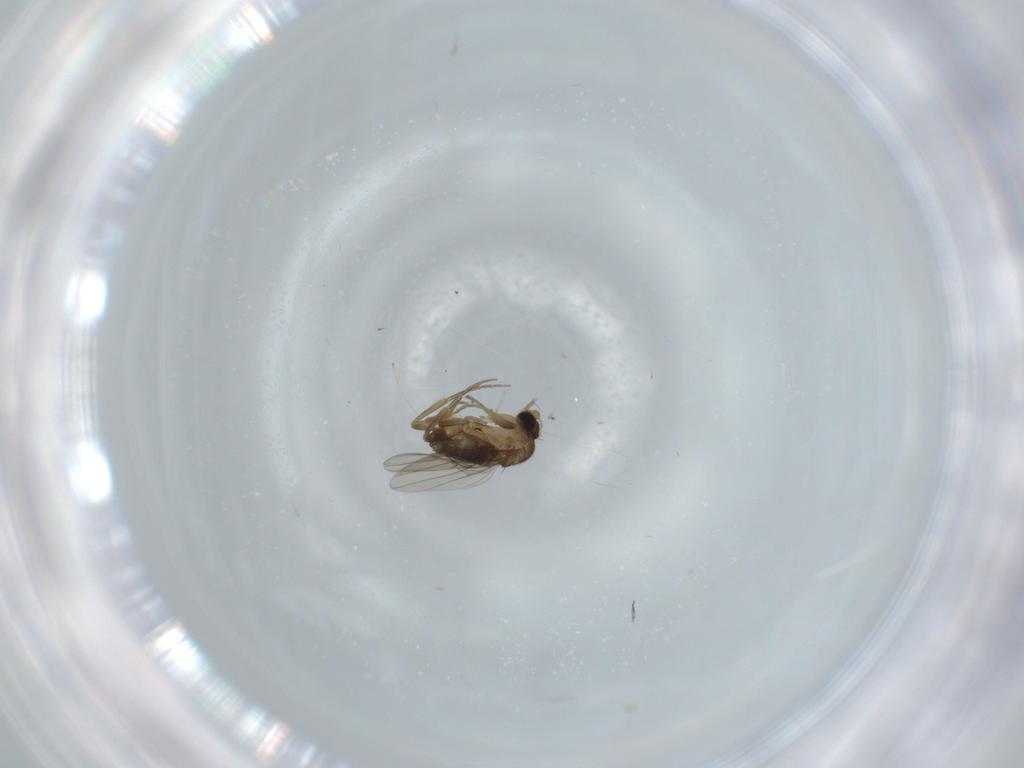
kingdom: Animalia
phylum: Arthropoda
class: Insecta
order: Diptera
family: Phoridae
